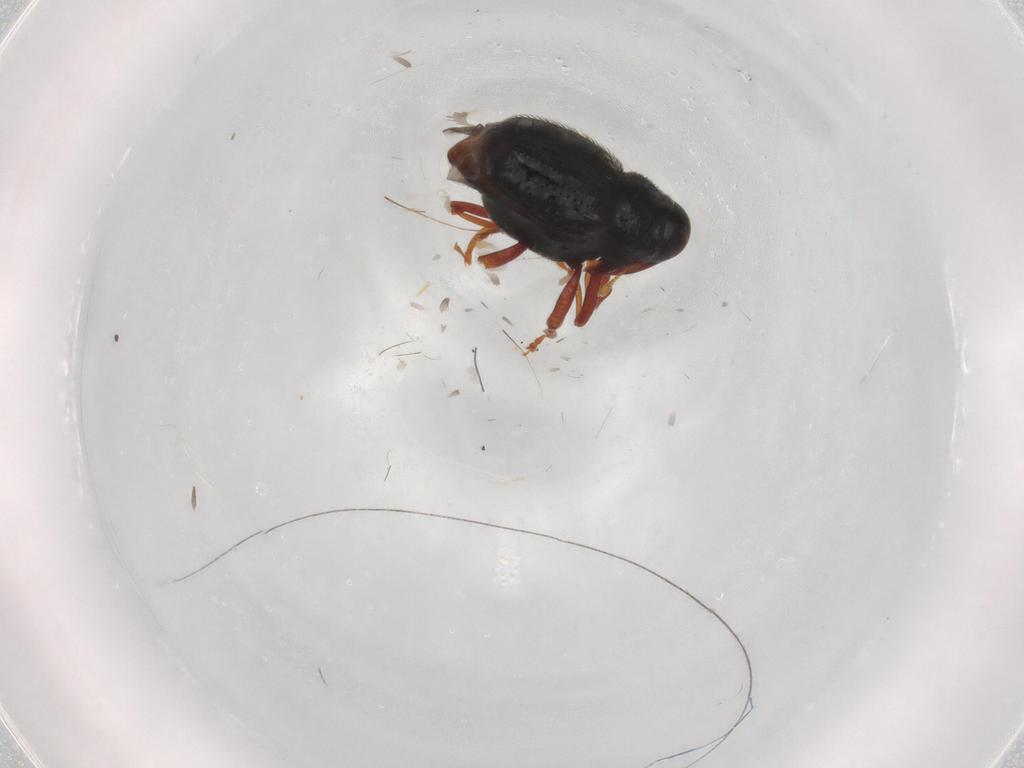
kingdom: Animalia
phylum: Arthropoda
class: Insecta
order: Coleoptera
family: Curculionidae
